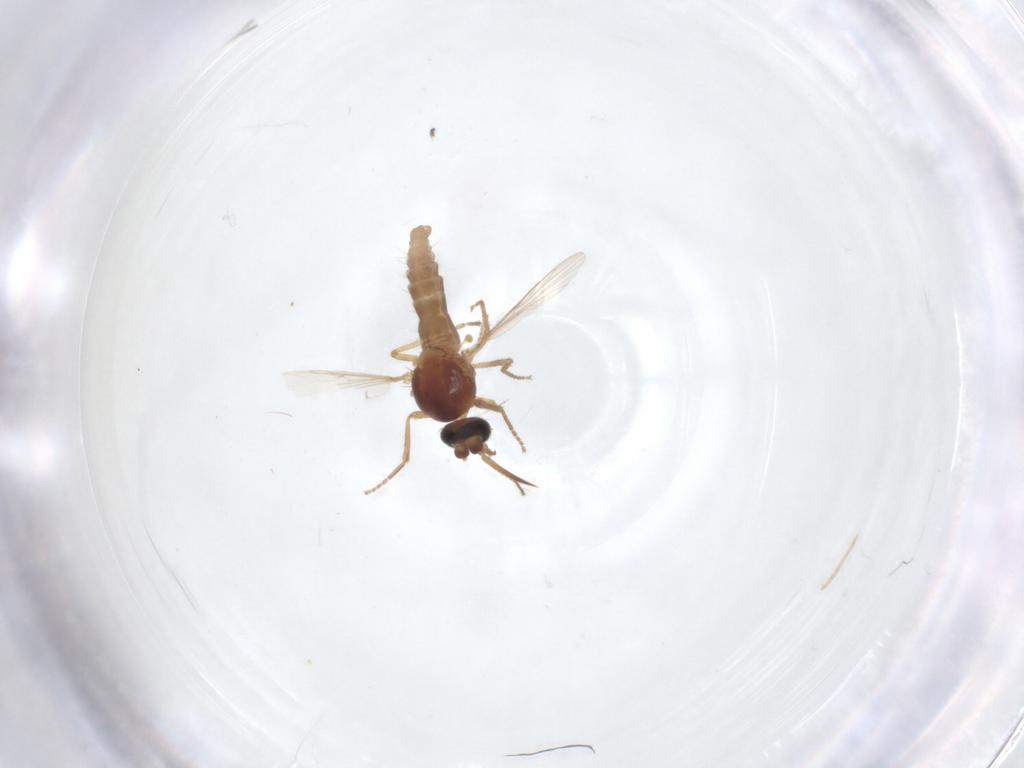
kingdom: Animalia
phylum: Arthropoda
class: Insecta
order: Diptera
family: Ceratopogonidae
